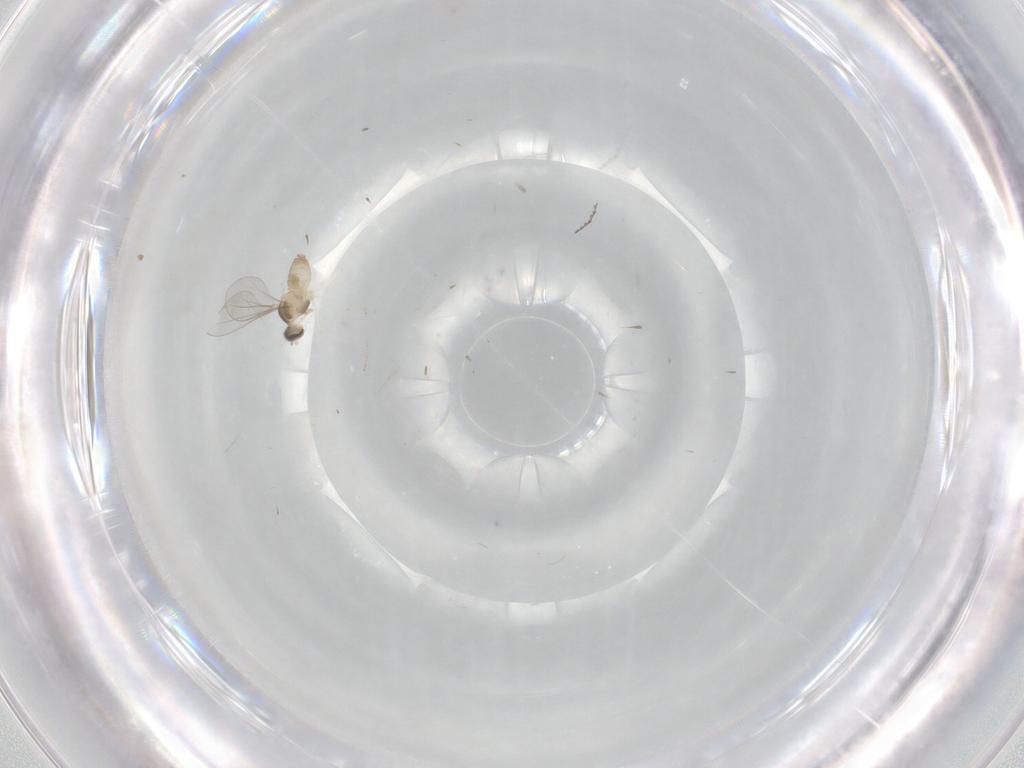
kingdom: Animalia
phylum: Arthropoda
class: Insecta
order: Diptera
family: Cecidomyiidae
